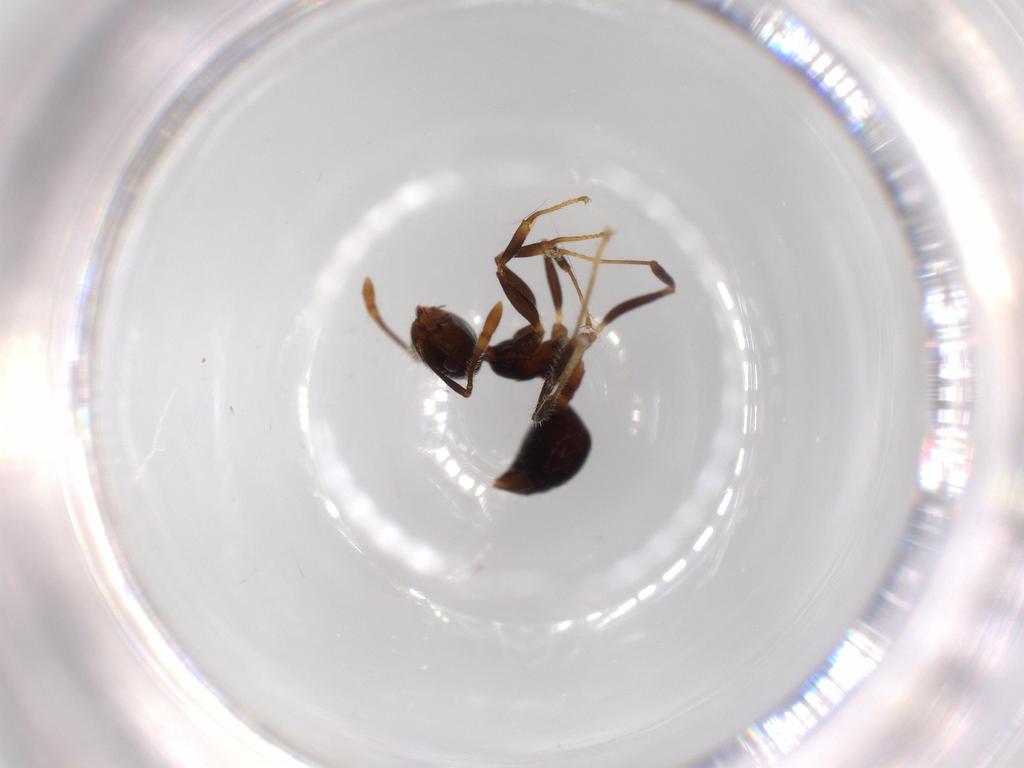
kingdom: Animalia
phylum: Arthropoda
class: Insecta
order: Hymenoptera
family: Formicidae
